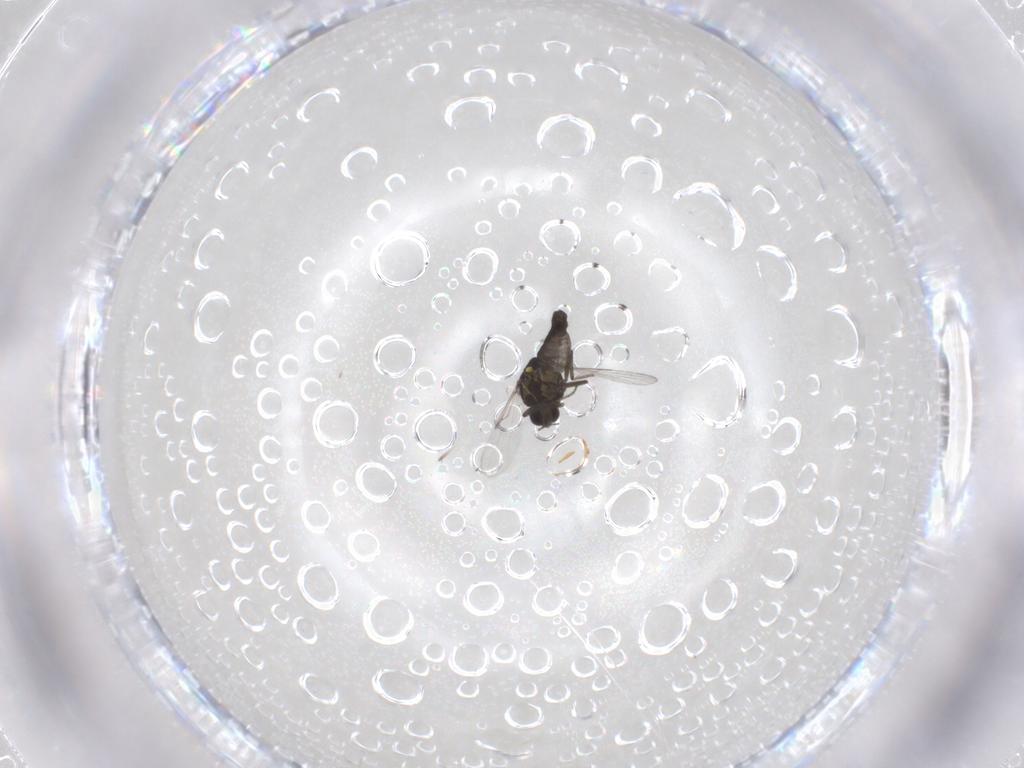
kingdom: Animalia
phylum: Arthropoda
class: Insecta
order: Diptera
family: Ceratopogonidae
